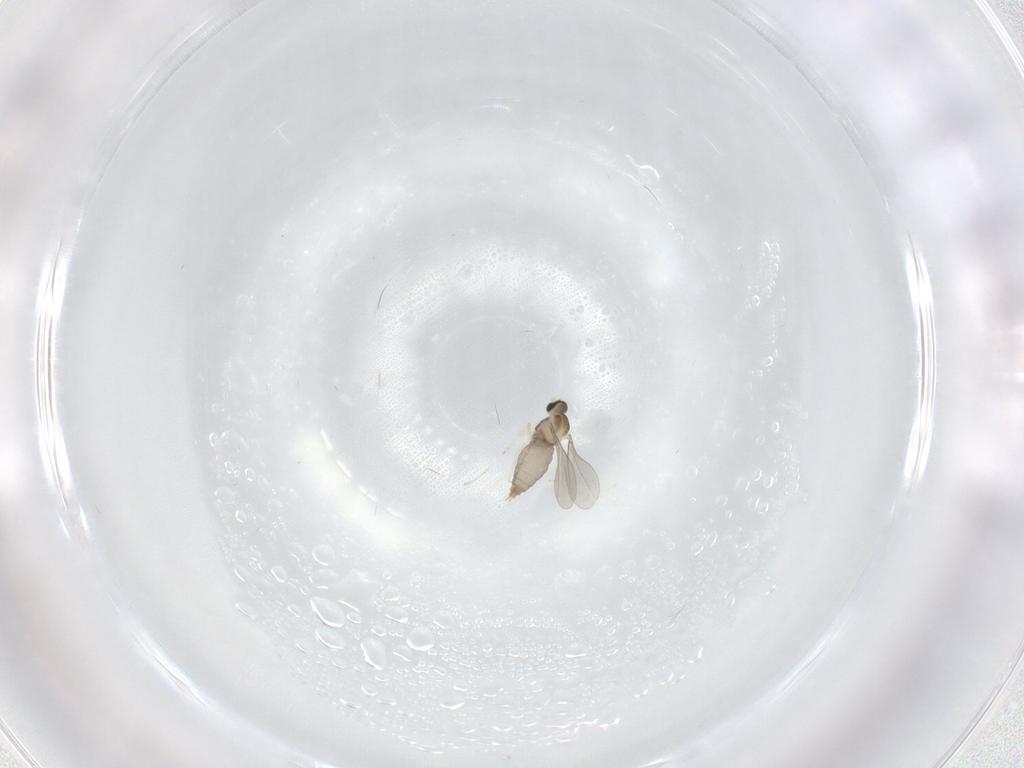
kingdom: Animalia
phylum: Arthropoda
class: Insecta
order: Diptera
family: Cecidomyiidae
